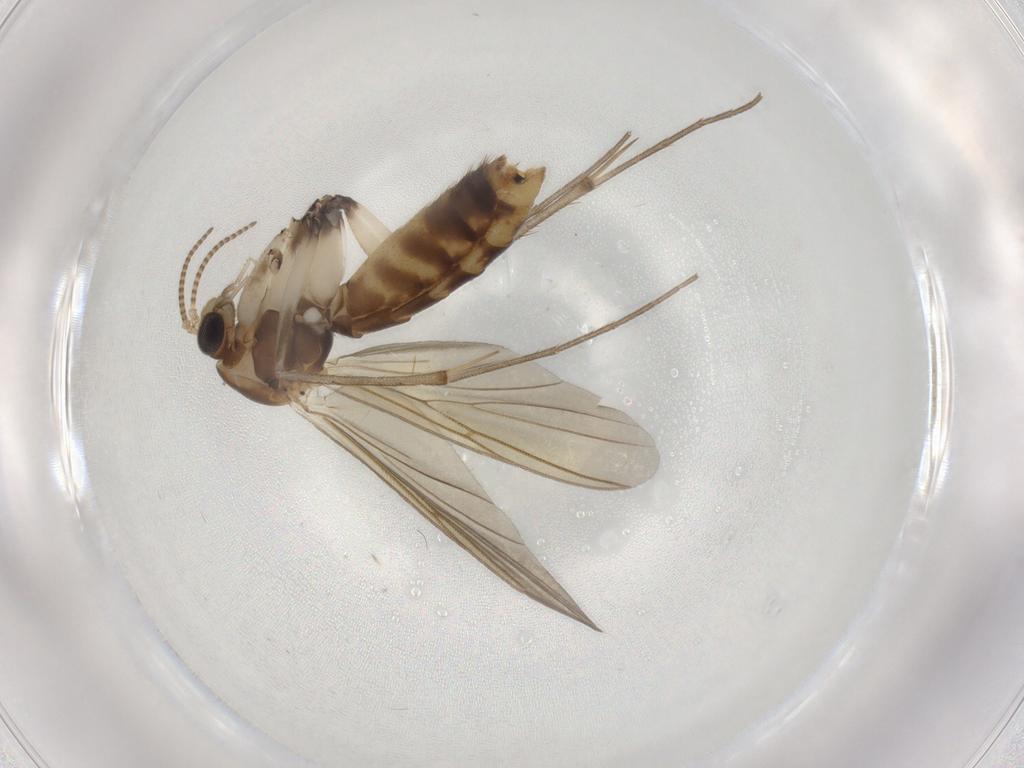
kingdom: Animalia
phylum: Arthropoda
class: Insecta
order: Diptera
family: Mycetophilidae
